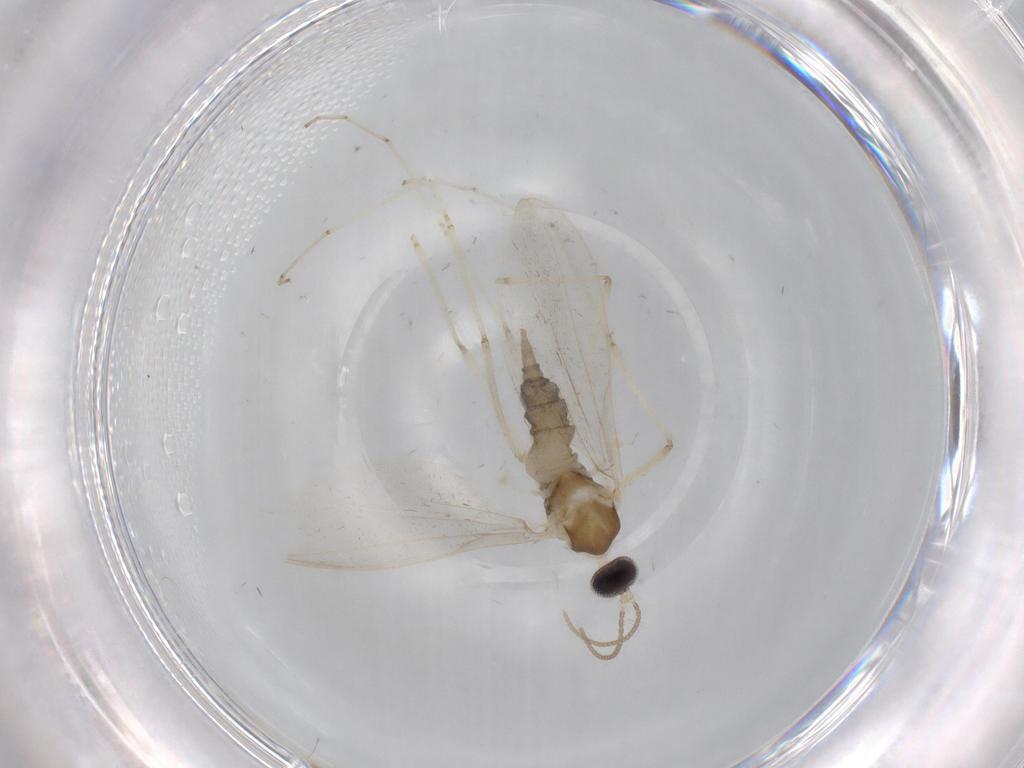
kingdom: Animalia
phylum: Arthropoda
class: Insecta
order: Diptera
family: Cecidomyiidae
